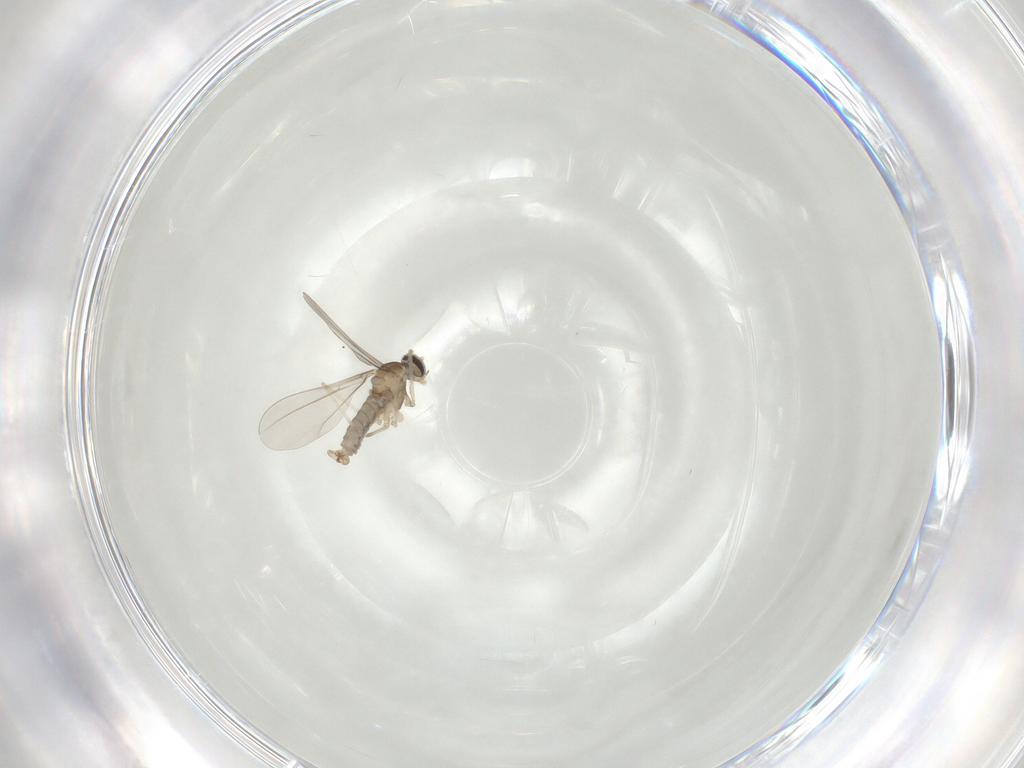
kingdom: Animalia
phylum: Arthropoda
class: Insecta
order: Diptera
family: Cecidomyiidae
